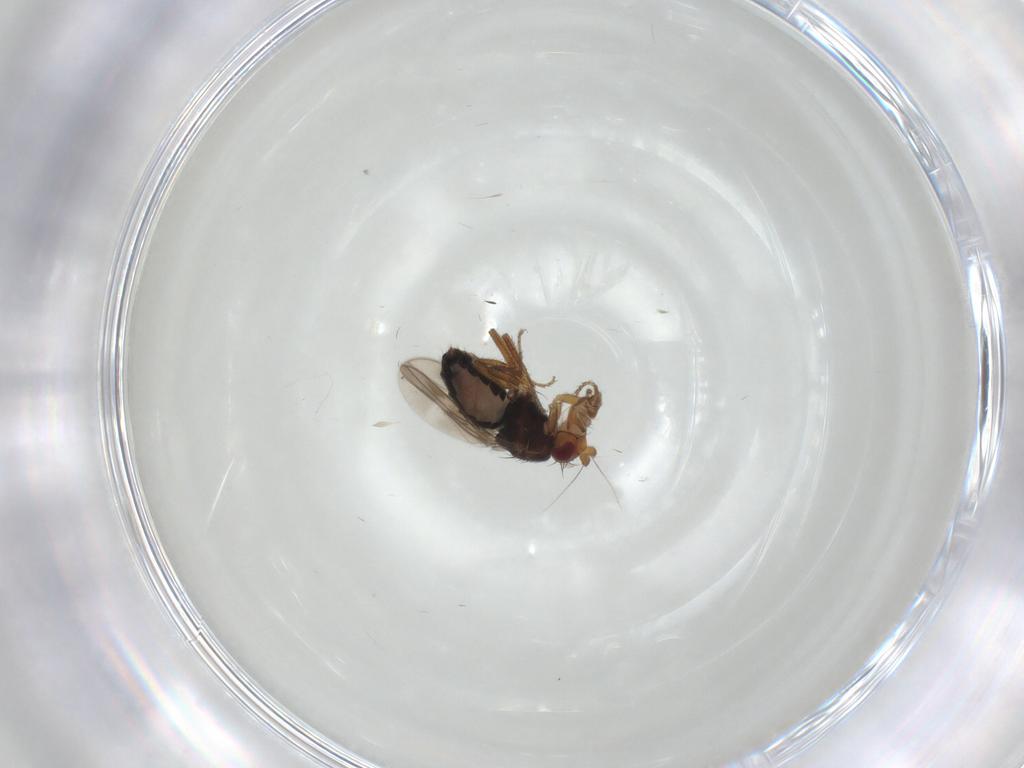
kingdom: Animalia
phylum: Arthropoda
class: Insecta
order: Diptera
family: Sphaeroceridae
